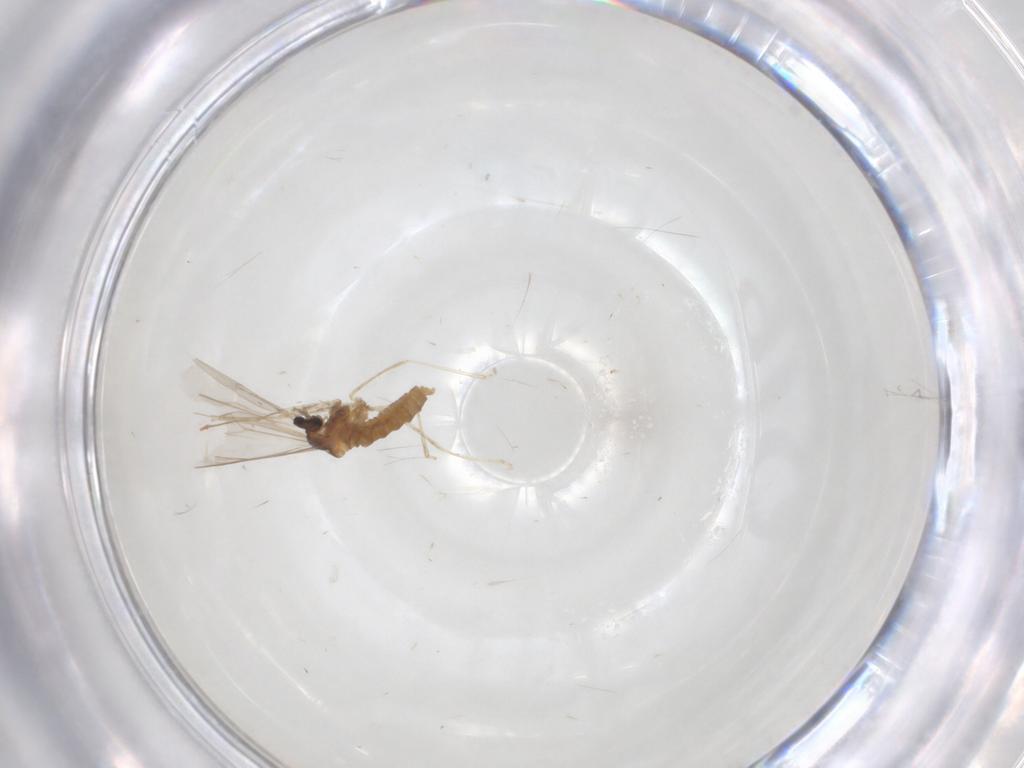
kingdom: Animalia
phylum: Arthropoda
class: Insecta
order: Diptera
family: Cecidomyiidae
